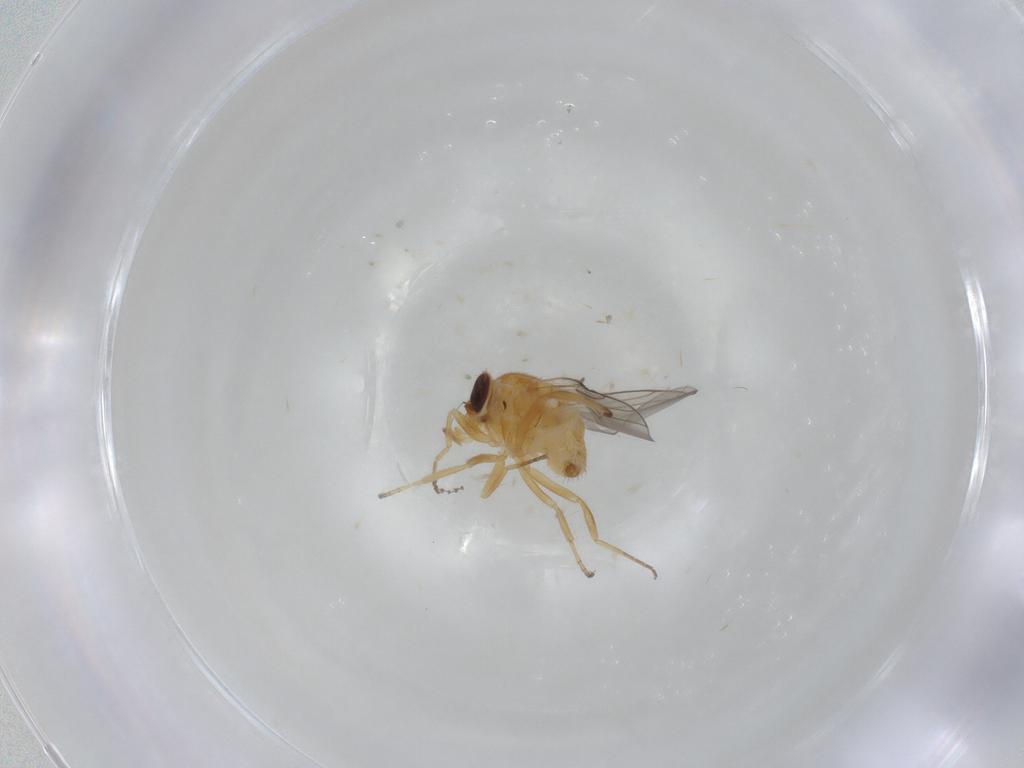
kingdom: Animalia
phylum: Arthropoda
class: Insecta
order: Diptera
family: Chloropidae
